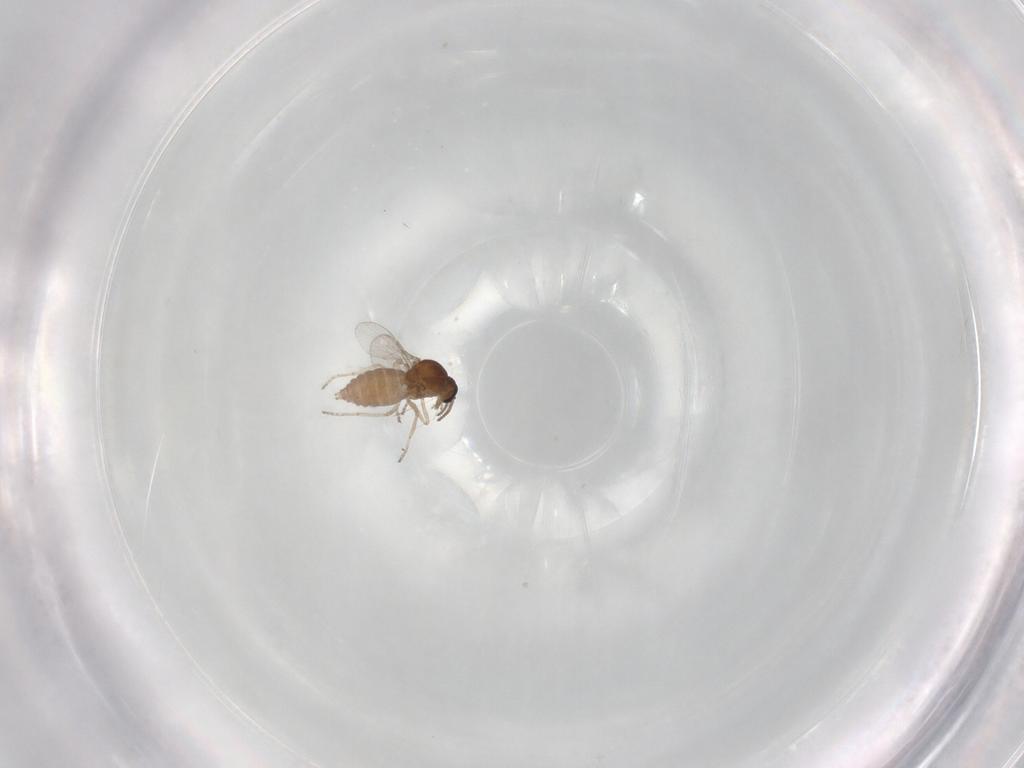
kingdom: Animalia
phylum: Arthropoda
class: Insecta
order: Diptera
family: Ceratopogonidae
